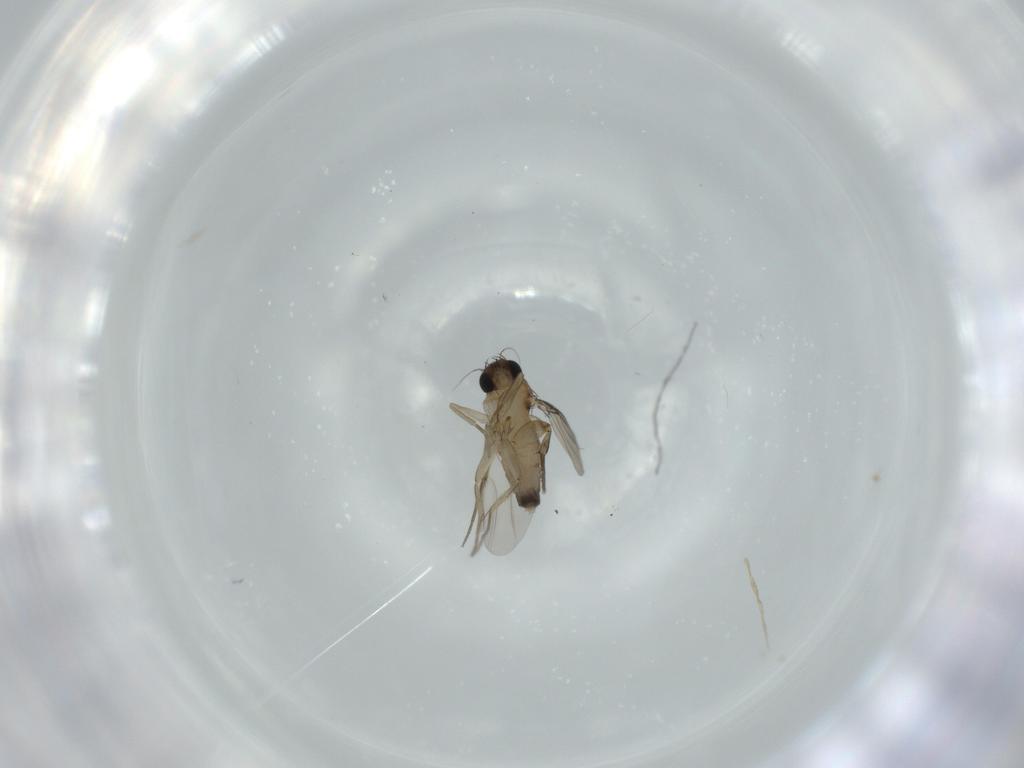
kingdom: Animalia
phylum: Arthropoda
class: Insecta
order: Diptera
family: Phoridae
